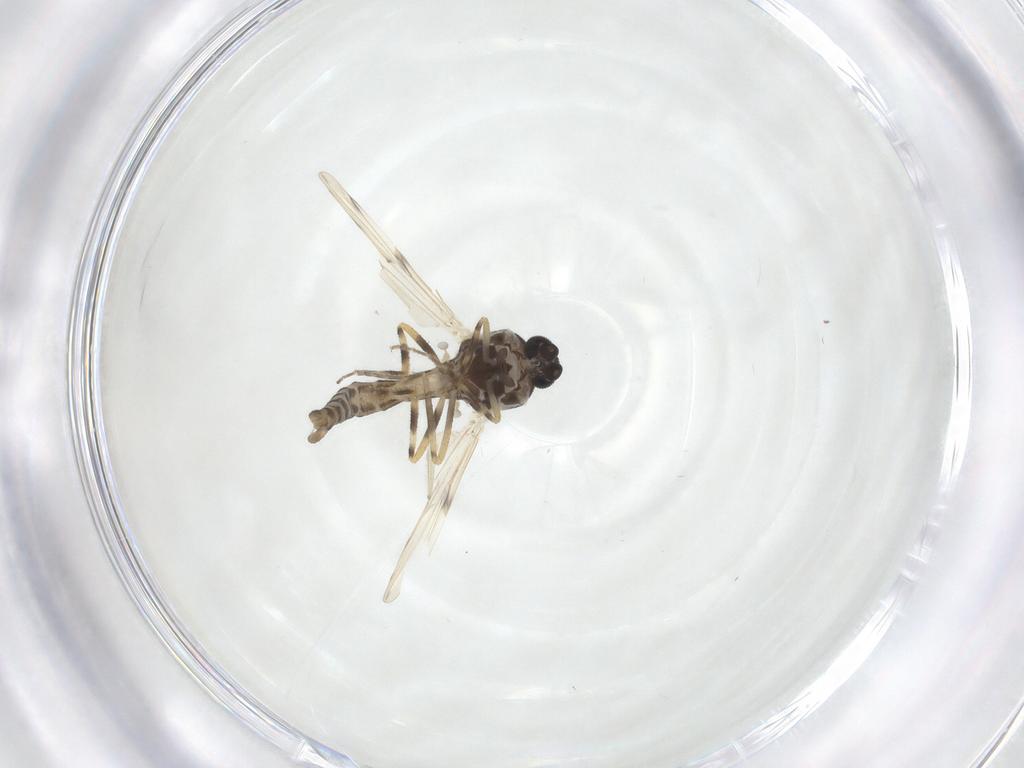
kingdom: Animalia
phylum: Arthropoda
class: Insecta
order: Diptera
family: Ceratopogonidae
